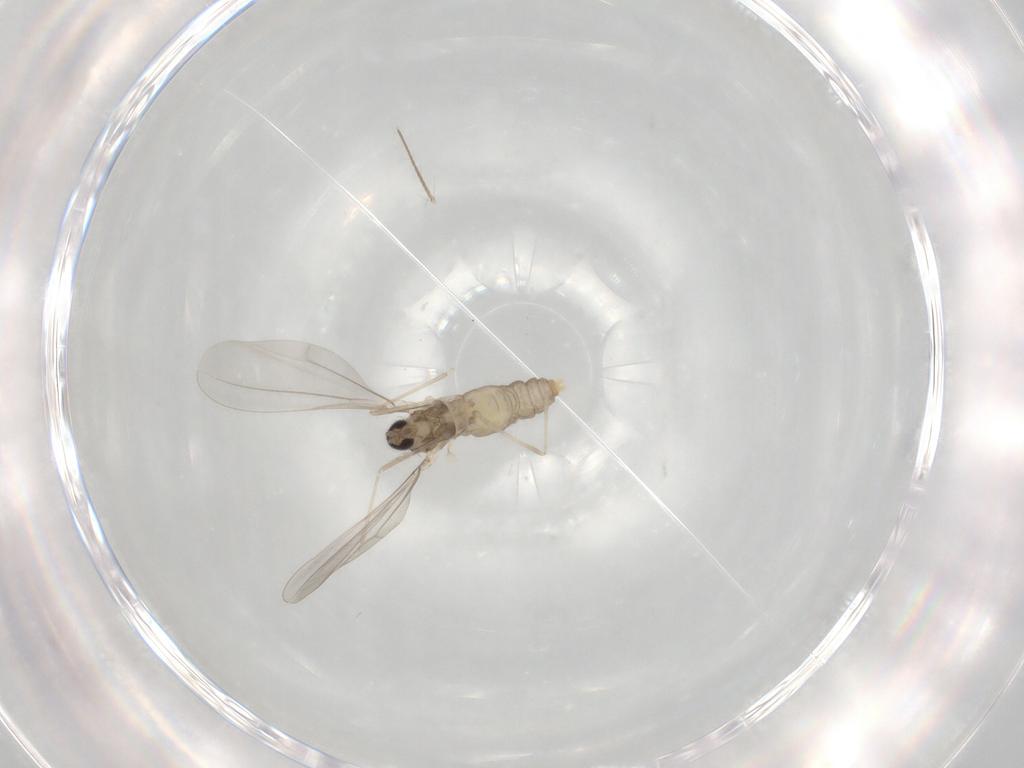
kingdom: Animalia
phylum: Arthropoda
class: Insecta
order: Diptera
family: Cecidomyiidae
